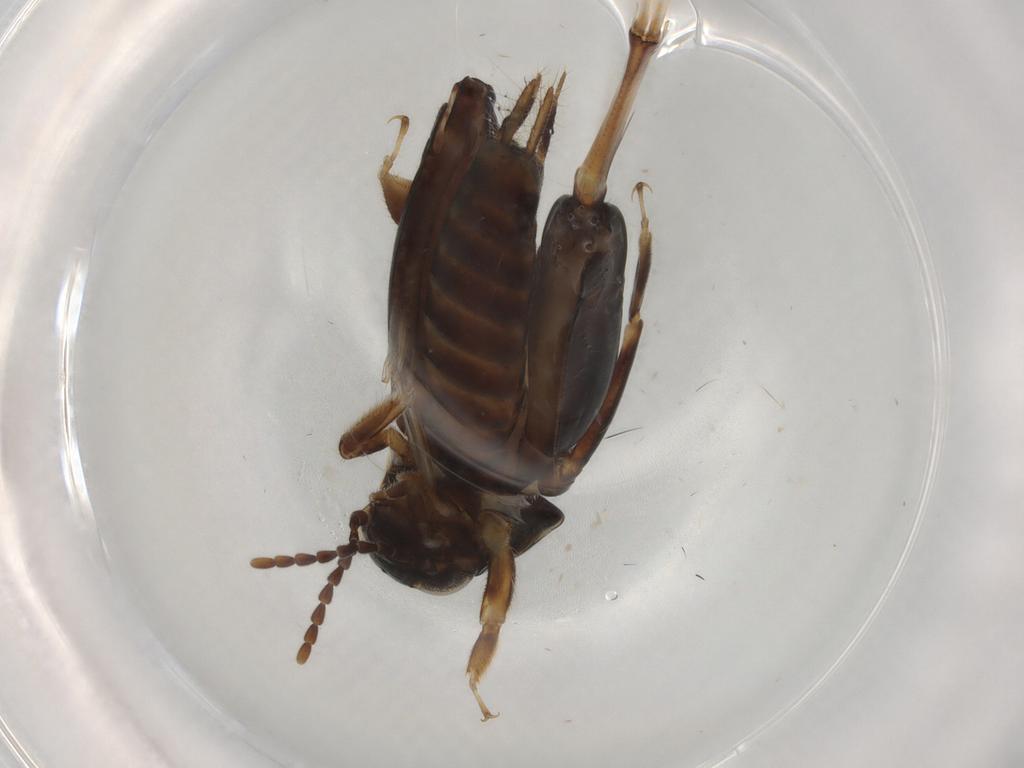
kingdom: Animalia
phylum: Arthropoda
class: Insecta
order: Orthoptera
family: Tridactylidae
